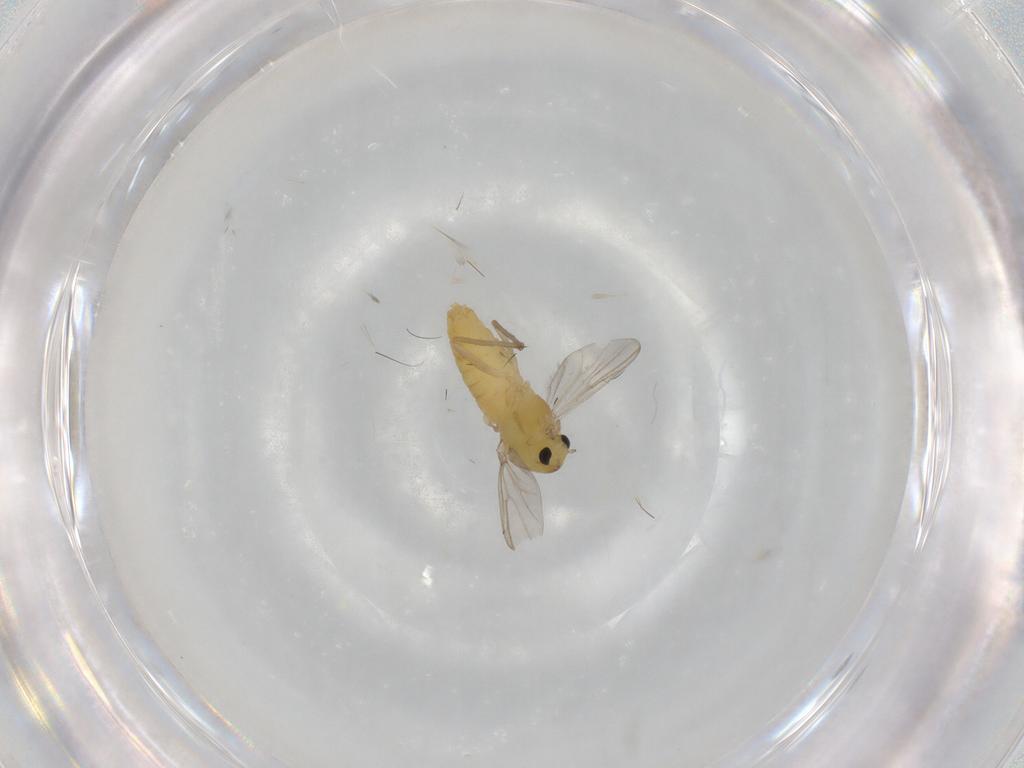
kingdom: Animalia
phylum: Arthropoda
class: Insecta
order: Diptera
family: Chironomidae
